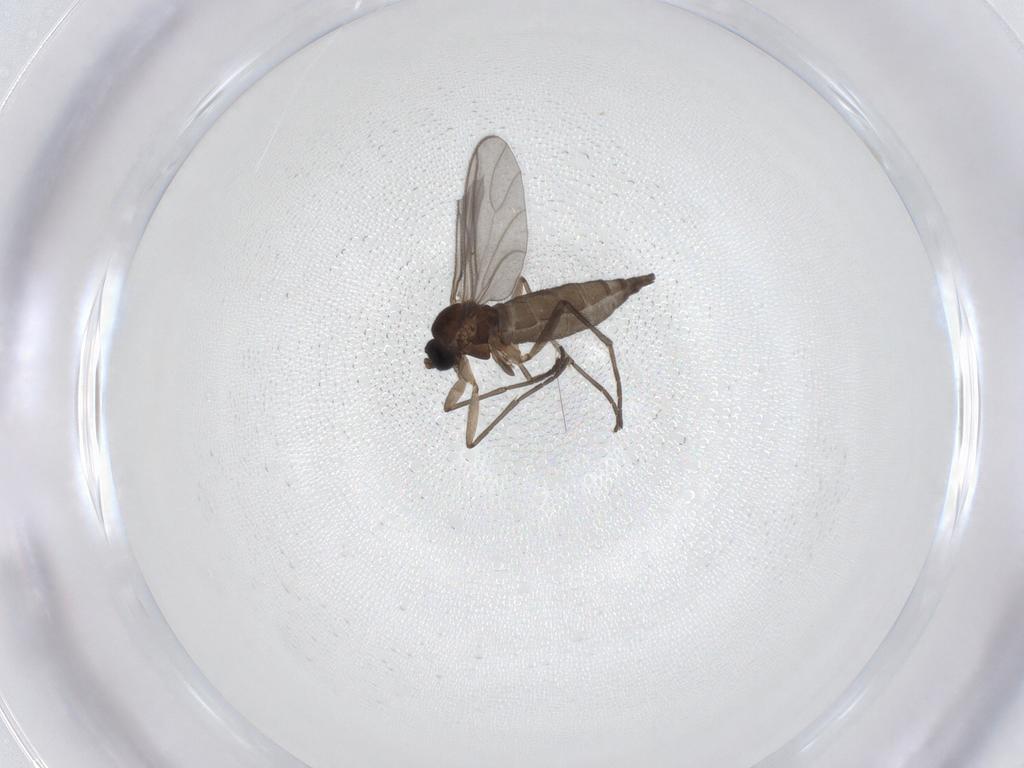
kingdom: Animalia
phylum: Arthropoda
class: Insecta
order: Diptera
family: Sciaridae
